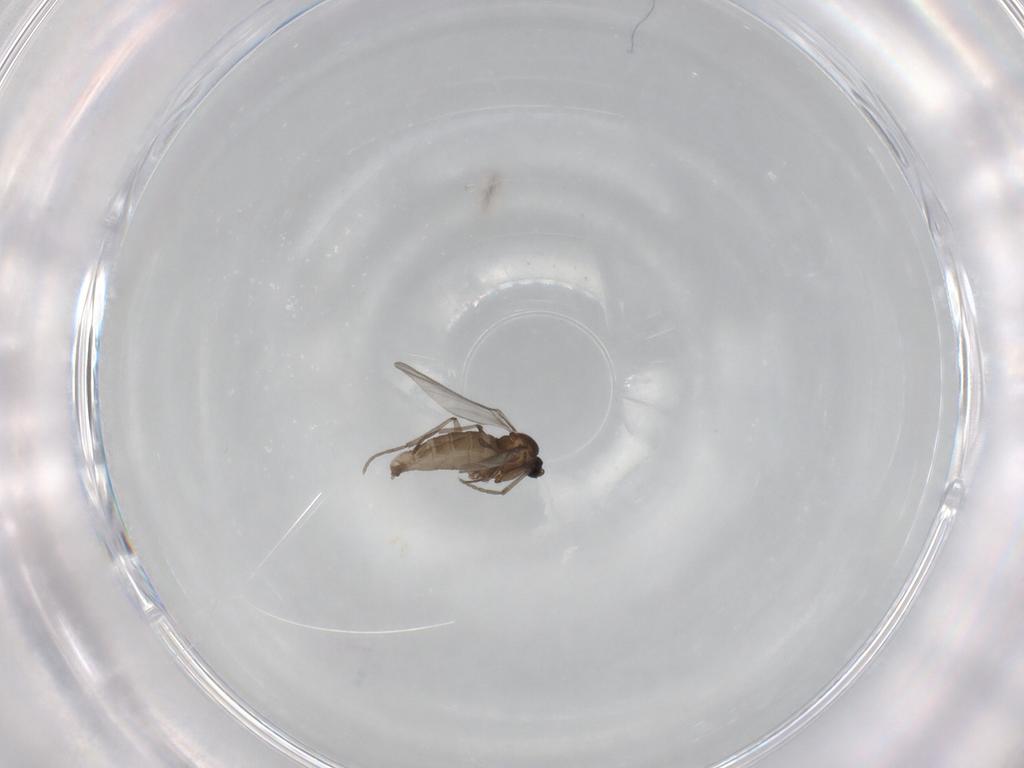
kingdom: Animalia
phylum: Arthropoda
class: Insecta
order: Diptera
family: Sciaridae
